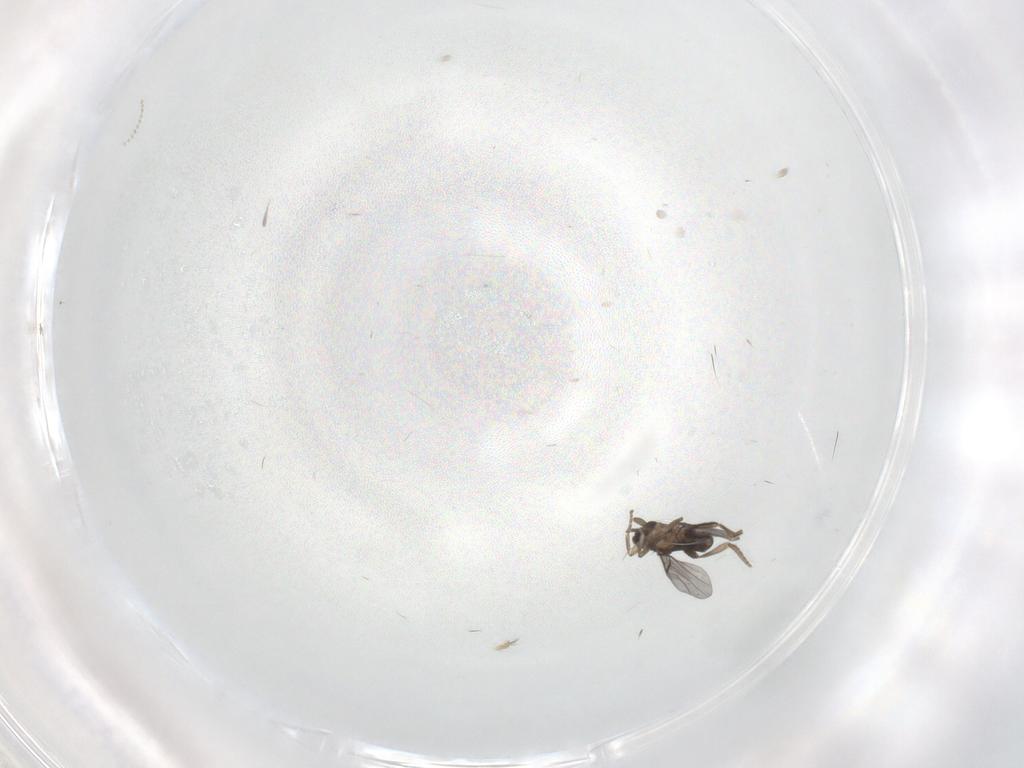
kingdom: Animalia
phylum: Arthropoda
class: Insecta
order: Diptera
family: Cecidomyiidae
